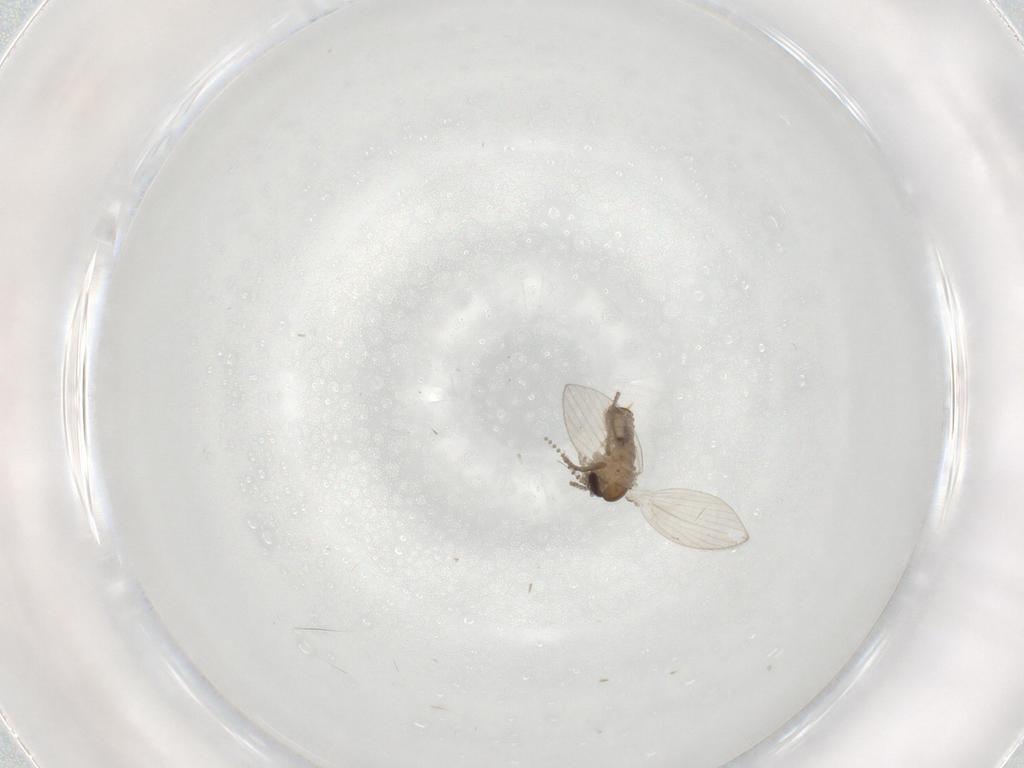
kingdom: Animalia
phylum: Arthropoda
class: Insecta
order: Diptera
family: Psychodidae
